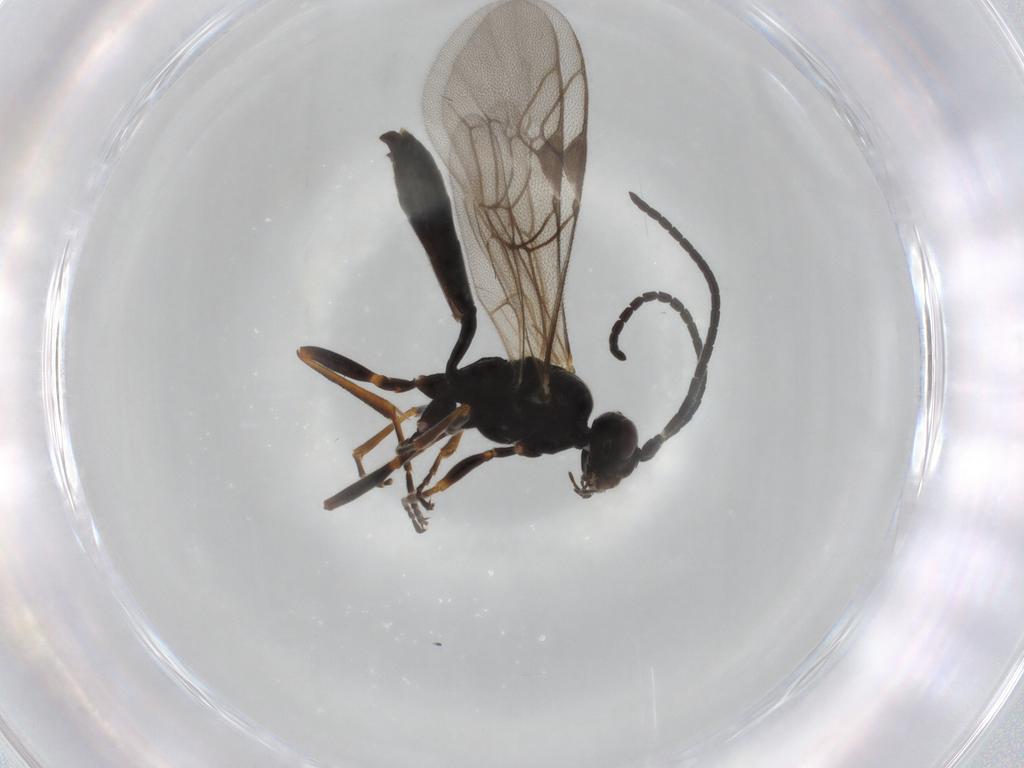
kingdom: Animalia
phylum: Arthropoda
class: Insecta
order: Hymenoptera
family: Ichneumonidae
